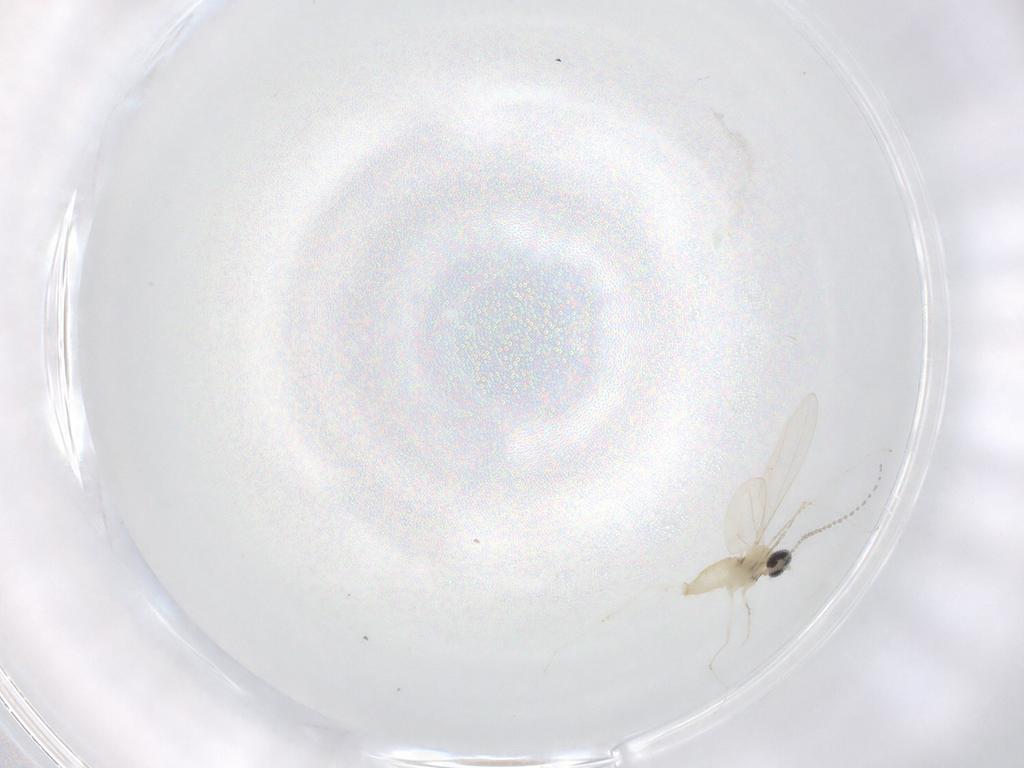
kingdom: Animalia
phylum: Arthropoda
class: Insecta
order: Diptera
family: Cecidomyiidae
